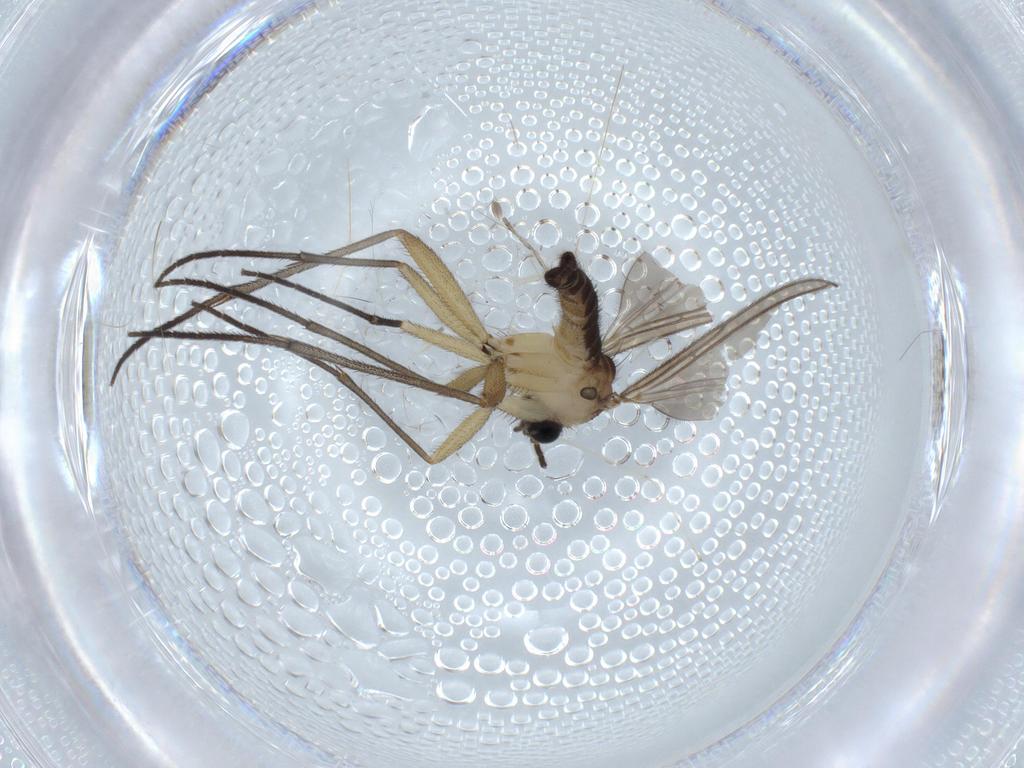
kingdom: Animalia
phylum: Arthropoda
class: Insecta
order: Diptera
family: Sciaridae
